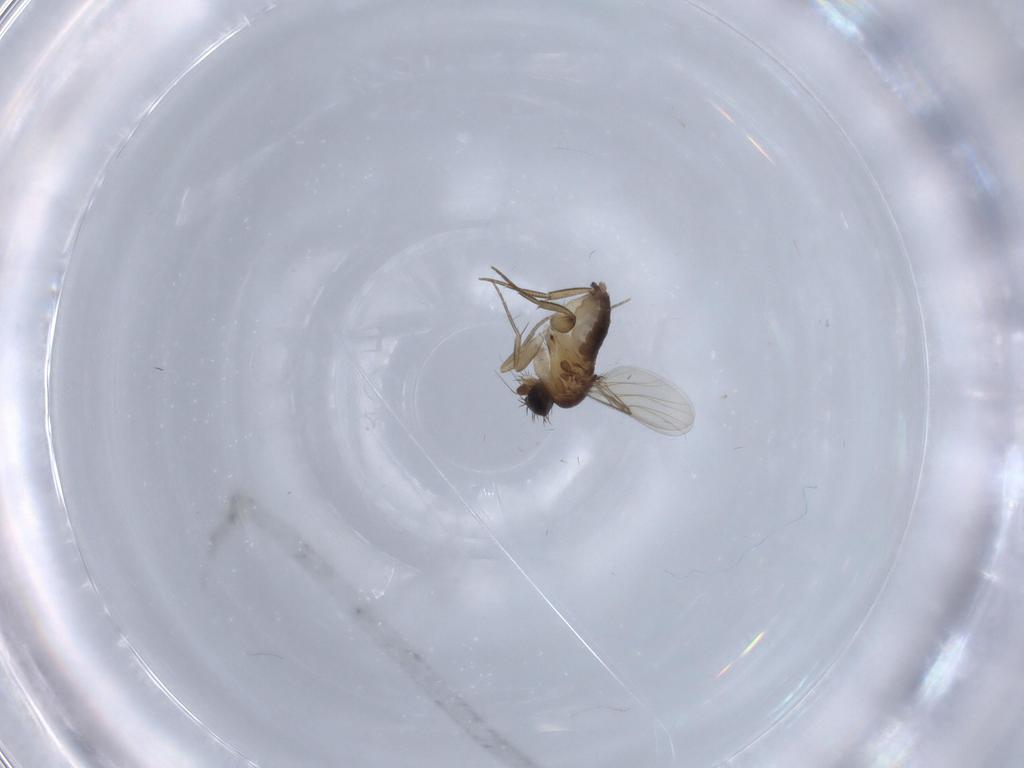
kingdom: Animalia
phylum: Arthropoda
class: Insecta
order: Diptera
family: Phoridae
